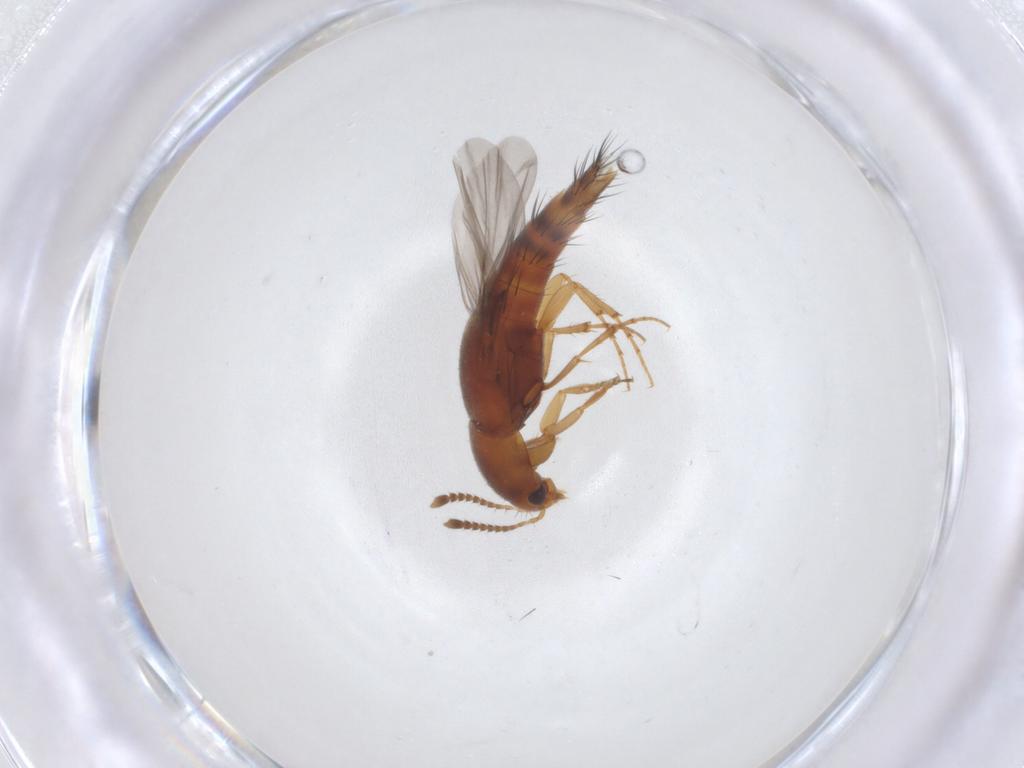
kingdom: Animalia
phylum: Arthropoda
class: Insecta
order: Coleoptera
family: Staphylinidae
